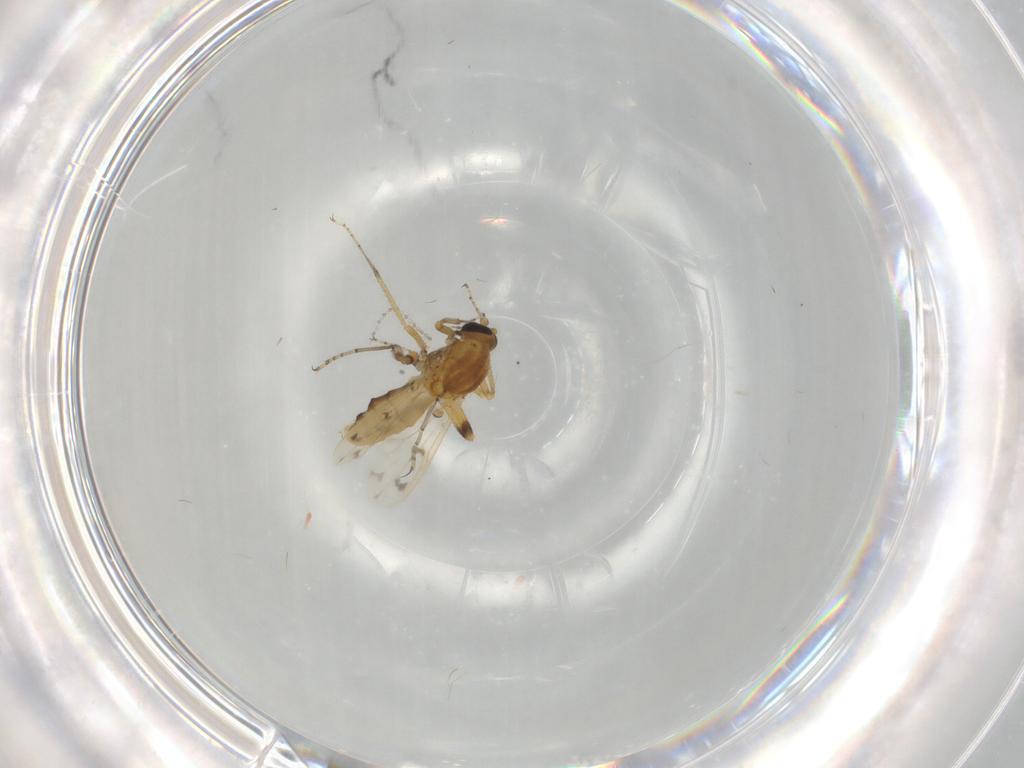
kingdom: Animalia
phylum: Arthropoda
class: Insecta
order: Diptera
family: Ceratopogonidae
